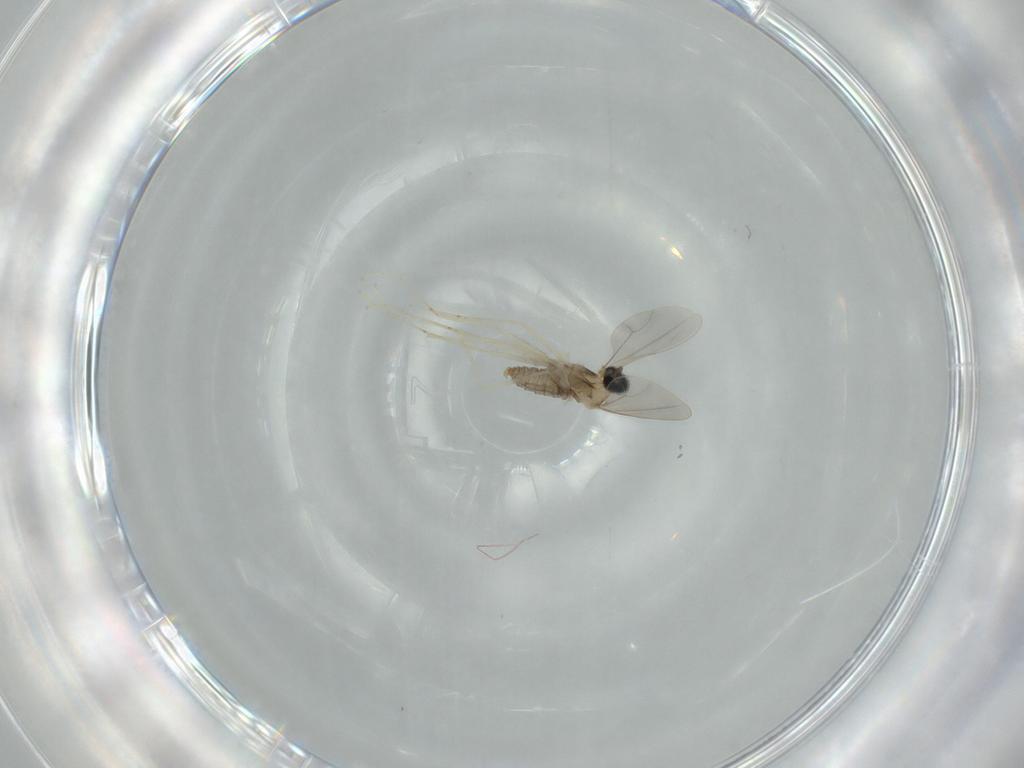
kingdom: Animalia
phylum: Arthropoda
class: Insecta
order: Diptera
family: Cecidomyiidae
